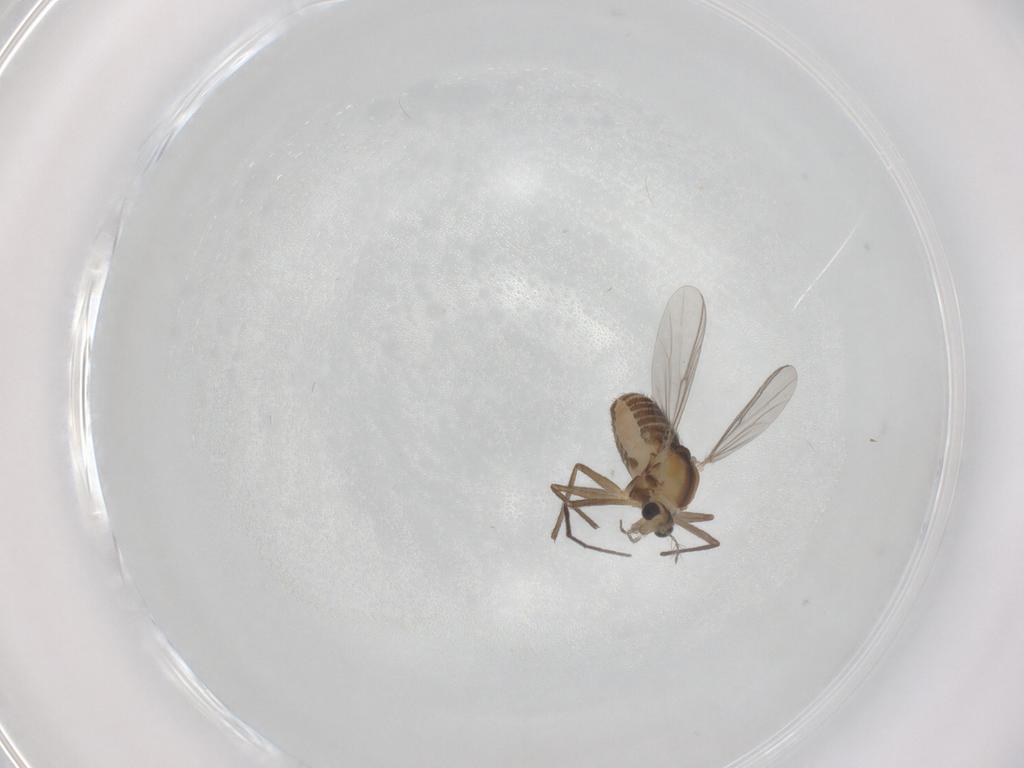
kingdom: Animalia
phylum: Arthropoda
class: Insecta
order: Diptera
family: Chironomidae
